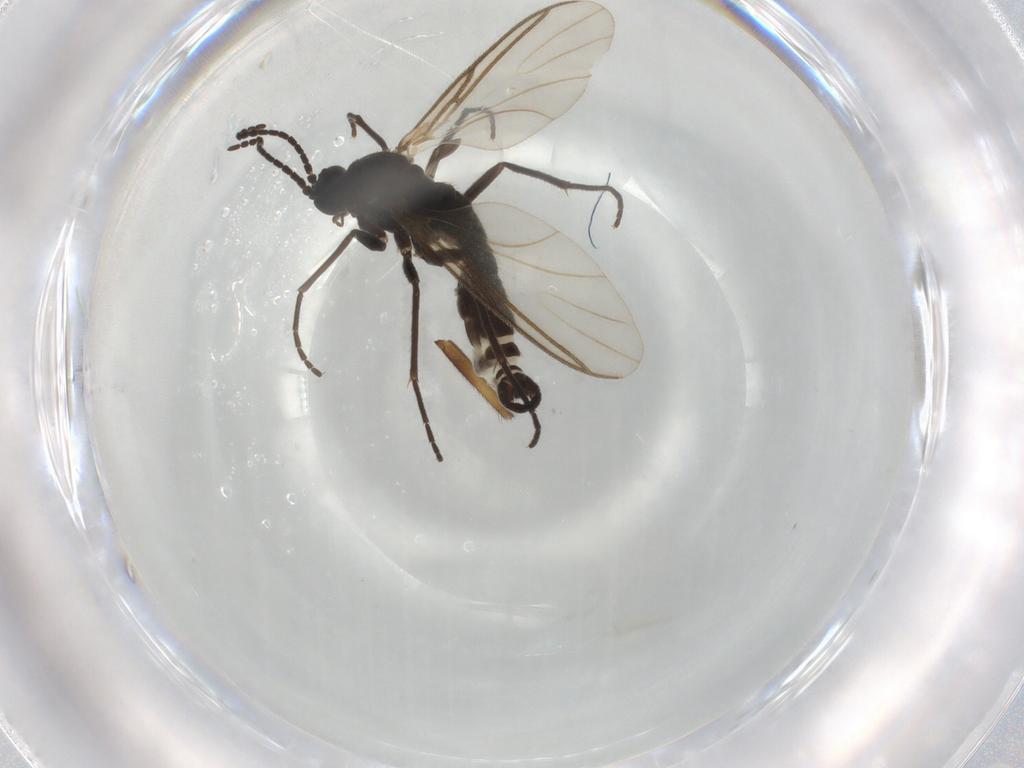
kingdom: Animalia
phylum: Arthropoda
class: Insecta
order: Diptera
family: Sciaridae
